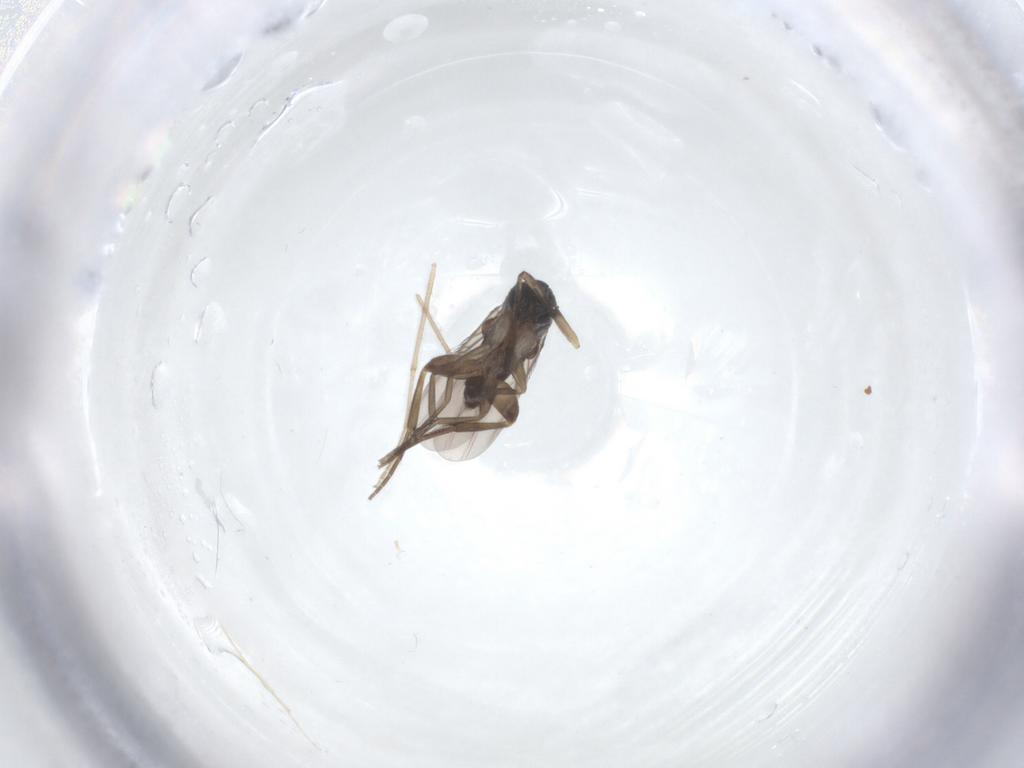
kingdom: Animalia
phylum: Arthropoda
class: Insecta
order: Diptera
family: Phoridae
